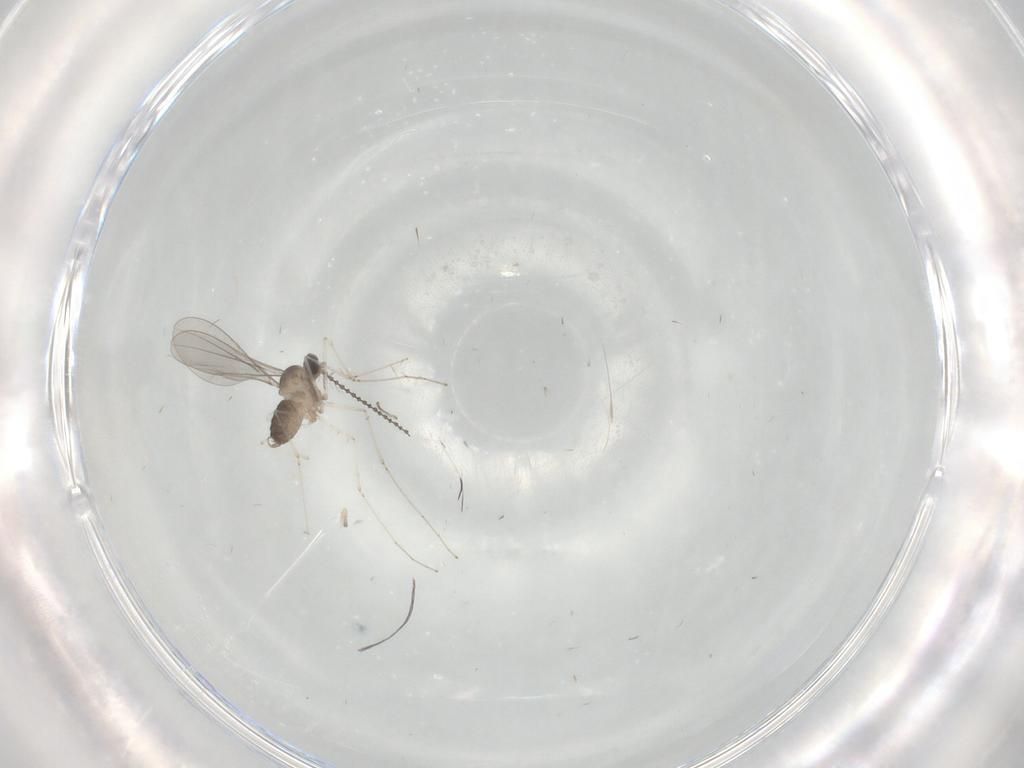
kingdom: Animalia
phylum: Arthropoda
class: Insecta
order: Diptera
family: Cecidomyiidae
